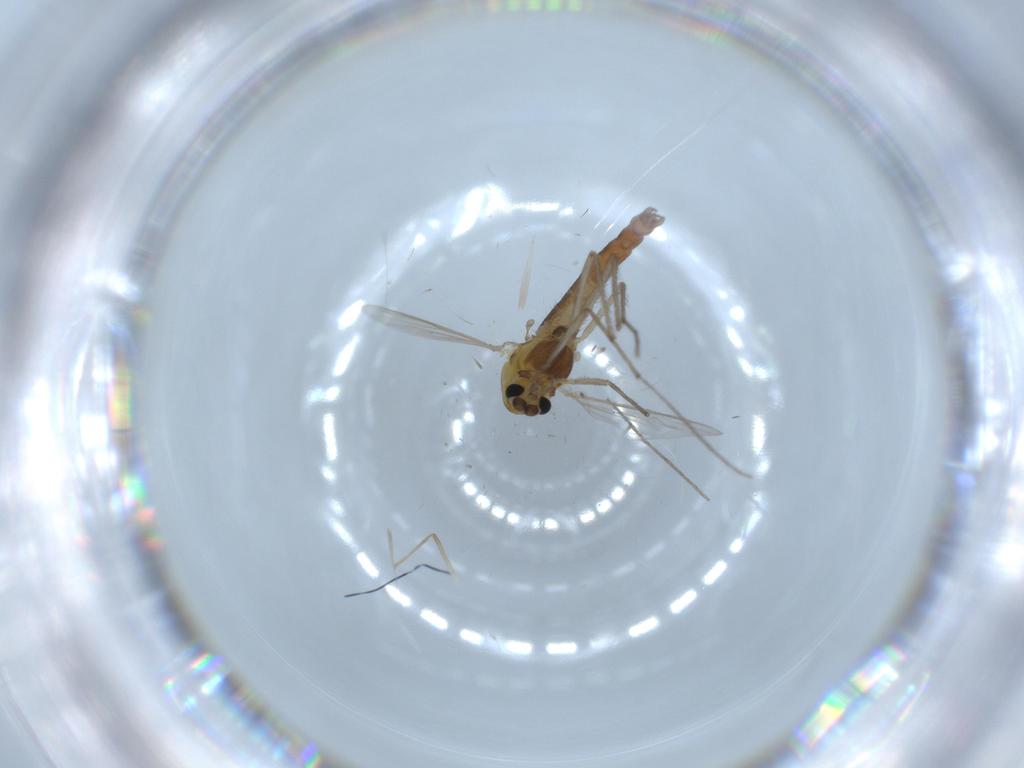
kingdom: Animalia
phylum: Arthropoda
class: Insecta
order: Diptera
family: Chironomidae
